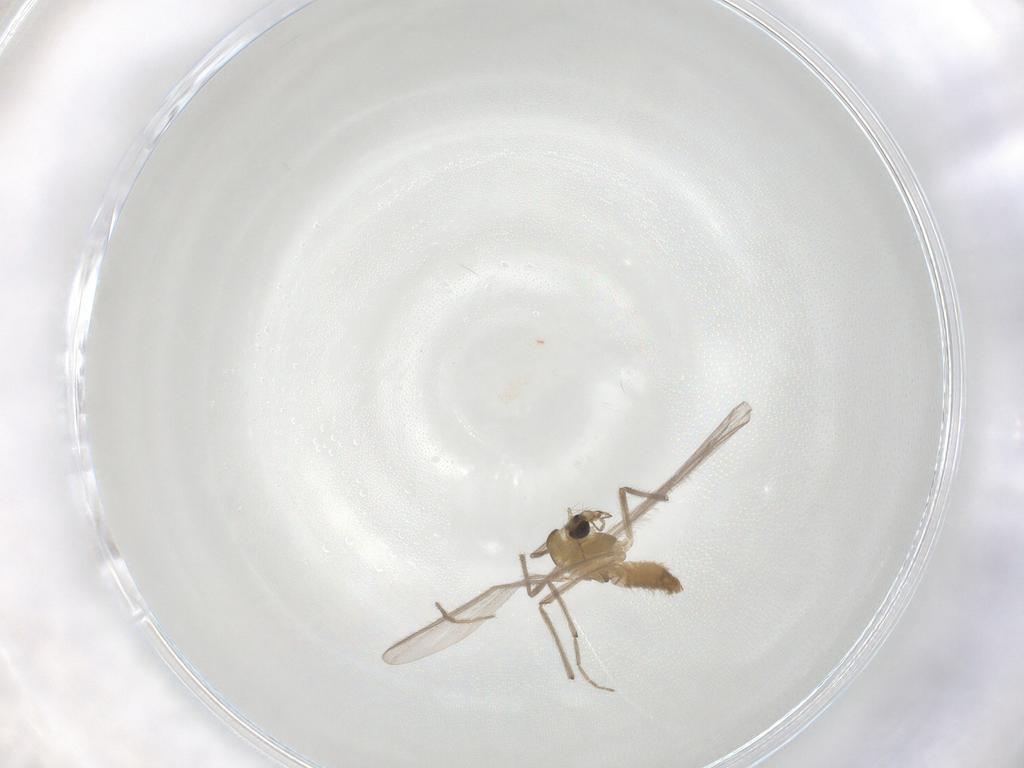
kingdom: Animalia
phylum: Arthropoda
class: Insecta
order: Diptera
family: Chironomidae
